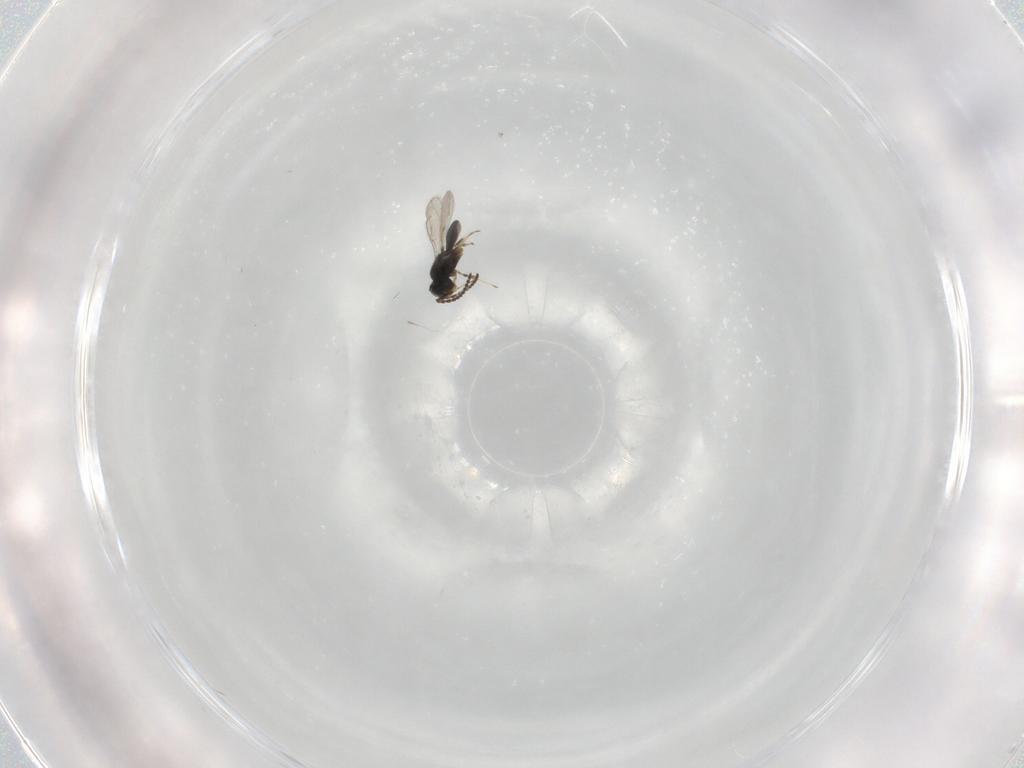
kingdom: Animalia
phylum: Arthropoda
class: Insecta
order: Hymenoptera
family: Scelionidae
